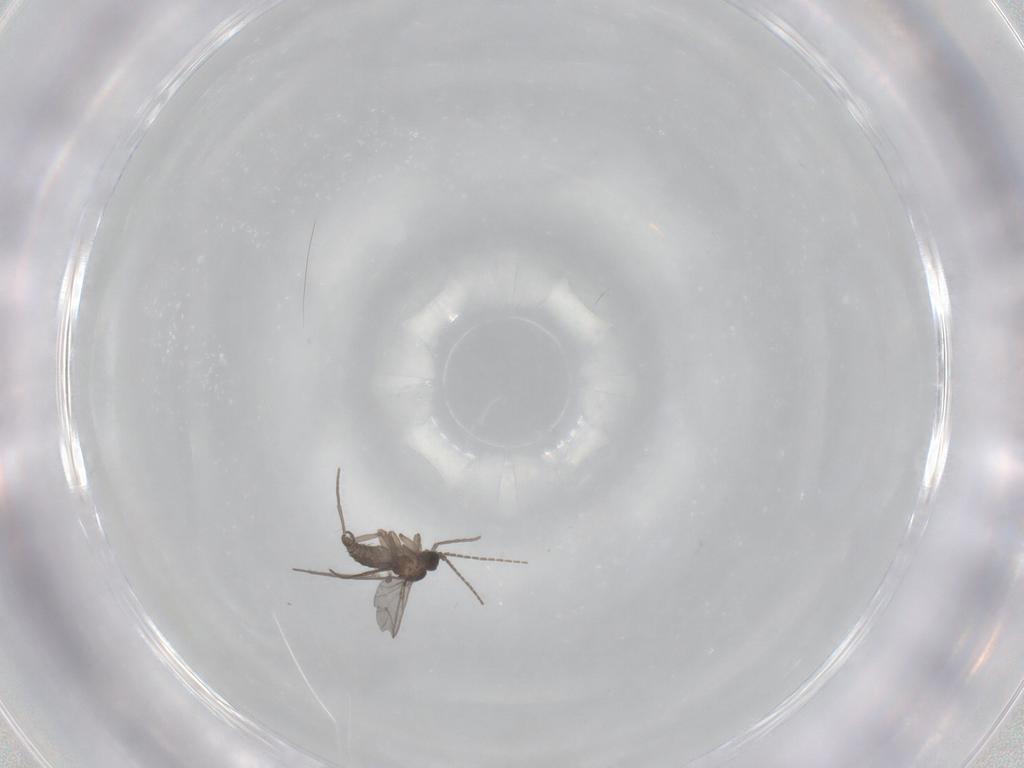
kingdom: Animalia
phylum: Arthropoda
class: Insecta
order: Diptera
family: Sciaridae
